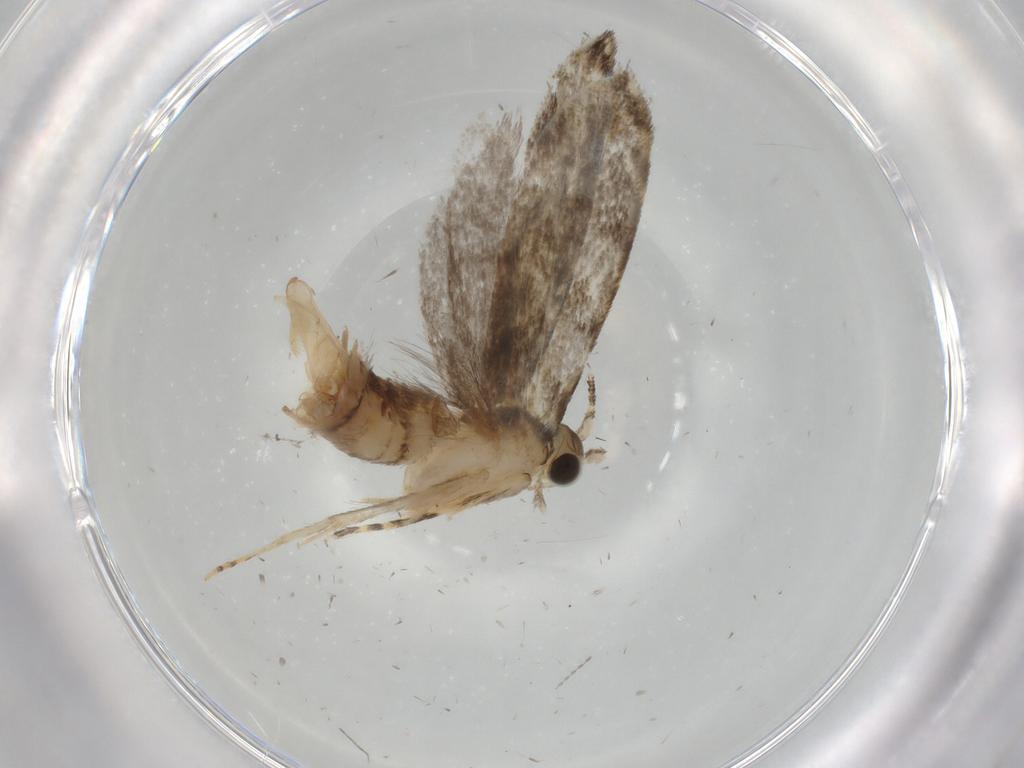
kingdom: Animalia
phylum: Arthropoda
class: Insecta
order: Lepidoptera
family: Tineidae
